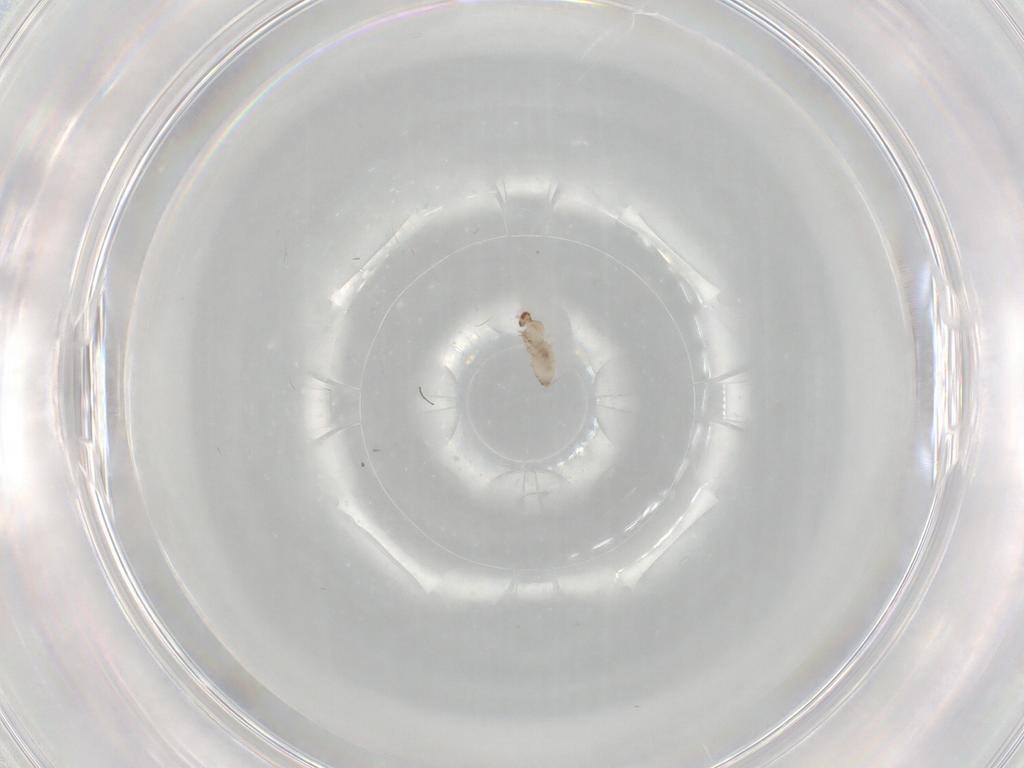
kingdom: Animalia
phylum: Arthropoda
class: Insecta
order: Diptera
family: Cecidomyiidae
